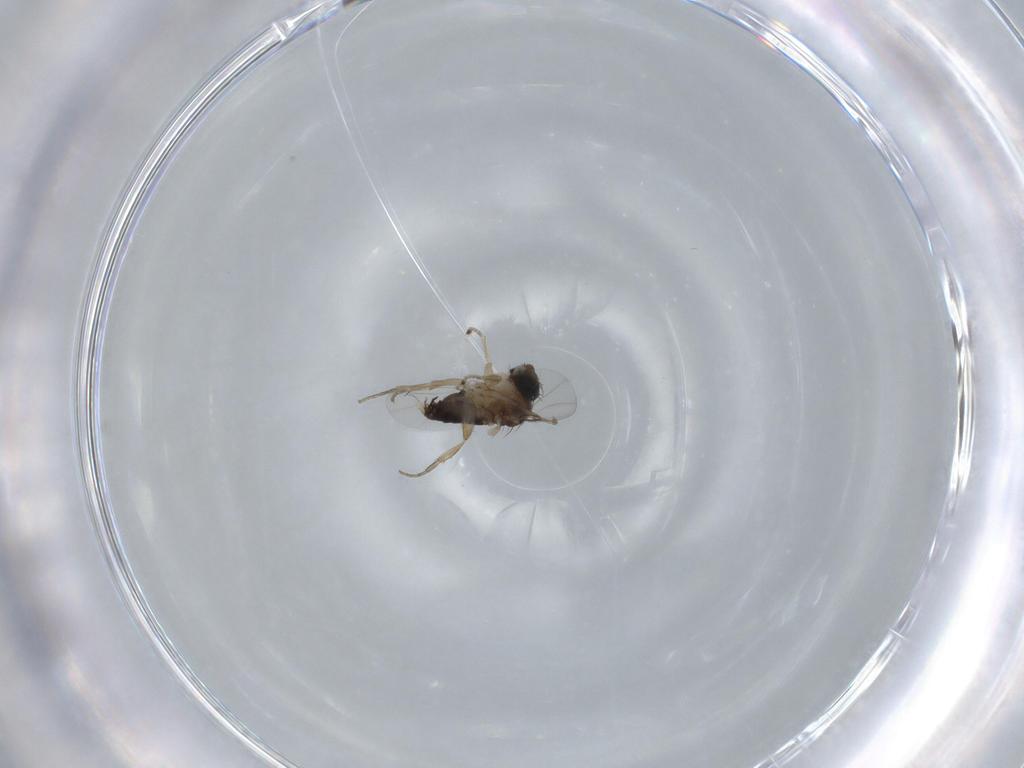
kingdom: Animalia
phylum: Arthropoda
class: Insecta
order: Diptera
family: Phoridae
